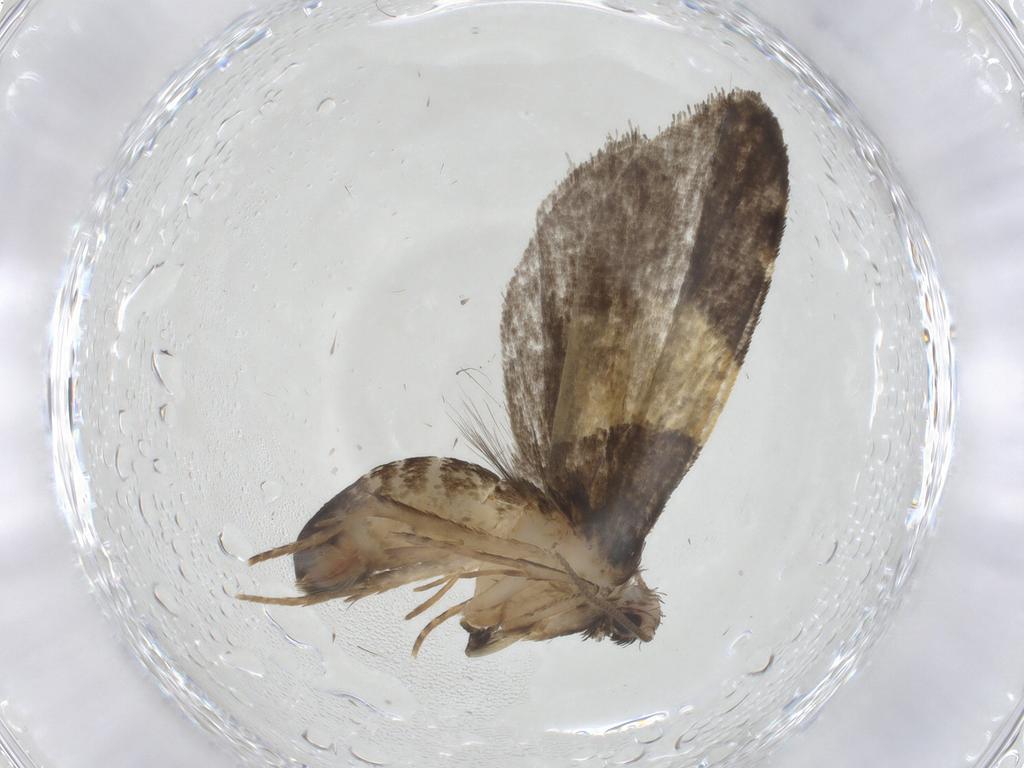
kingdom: Animalia
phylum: Arthropoda
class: Insecta
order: Lepidoptera
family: Psychidae
